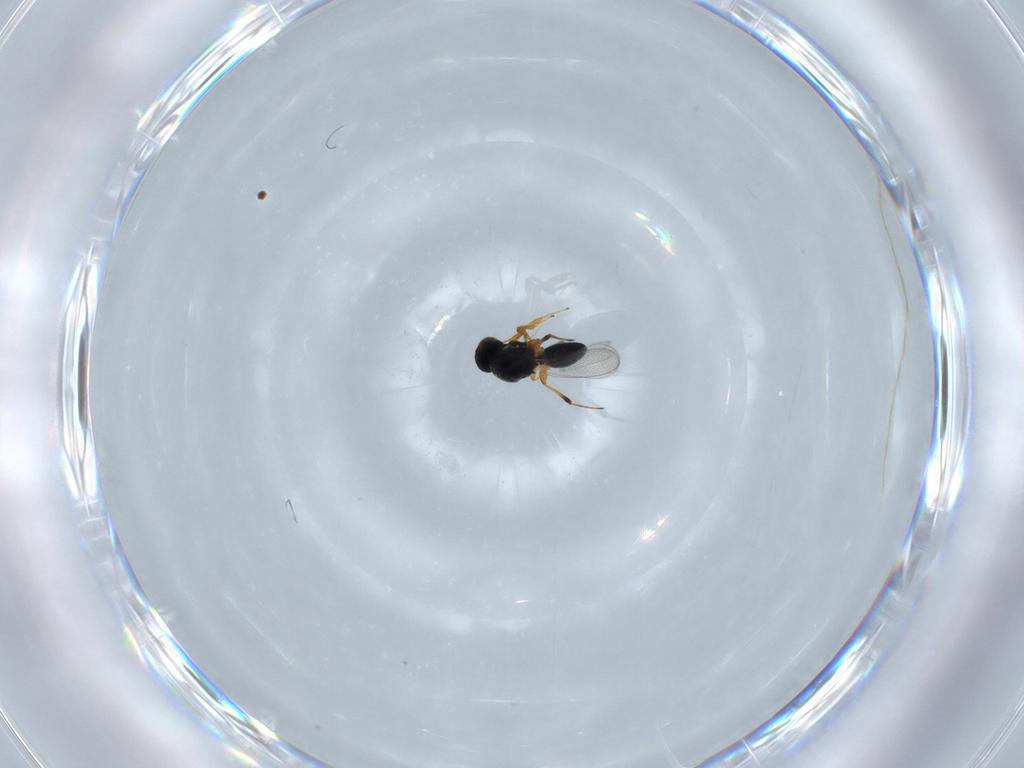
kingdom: Animalia
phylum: Arthropoda
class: Insecta
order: Hymenoptera
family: Platygastridae
